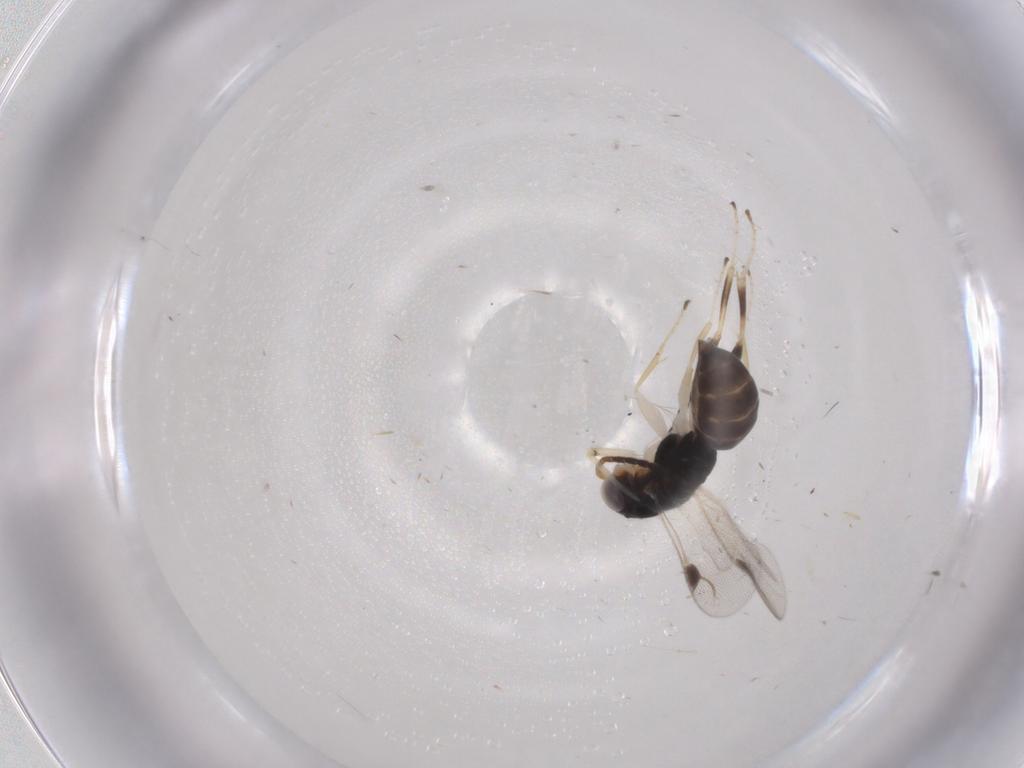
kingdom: Animalia
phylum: Arthropoda
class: Insecta
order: Hymenoptera
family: Dryinidae
